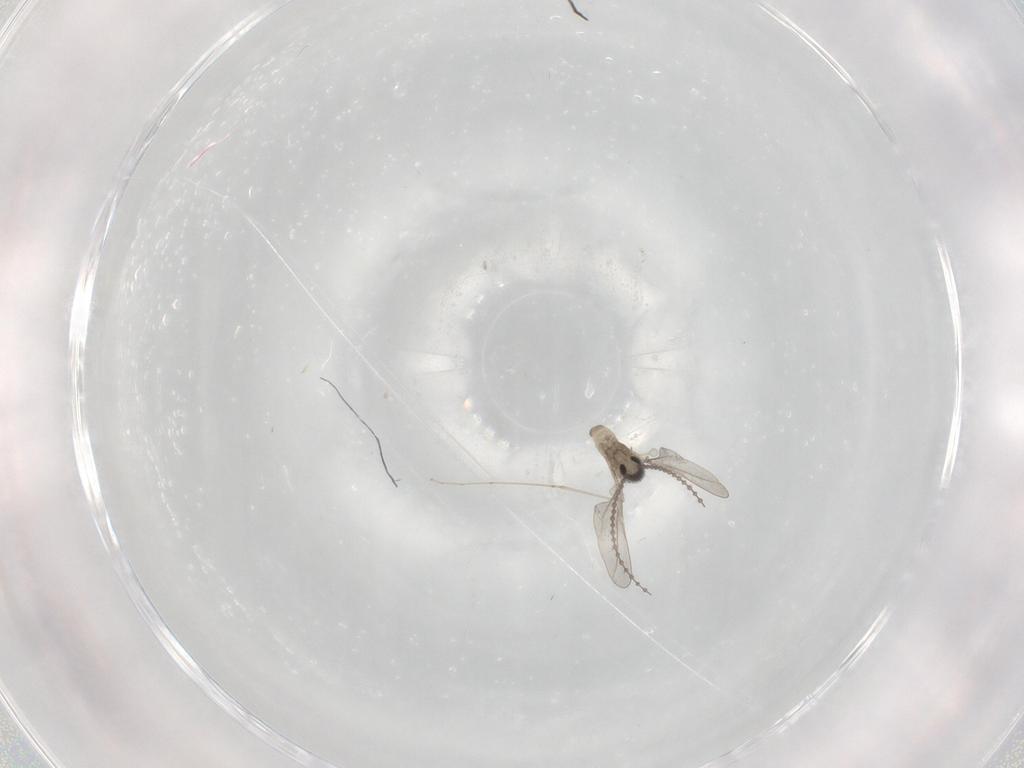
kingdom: Animalia
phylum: Arthropoda
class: Insecta
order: Diptera
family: Cecidomyiidae
